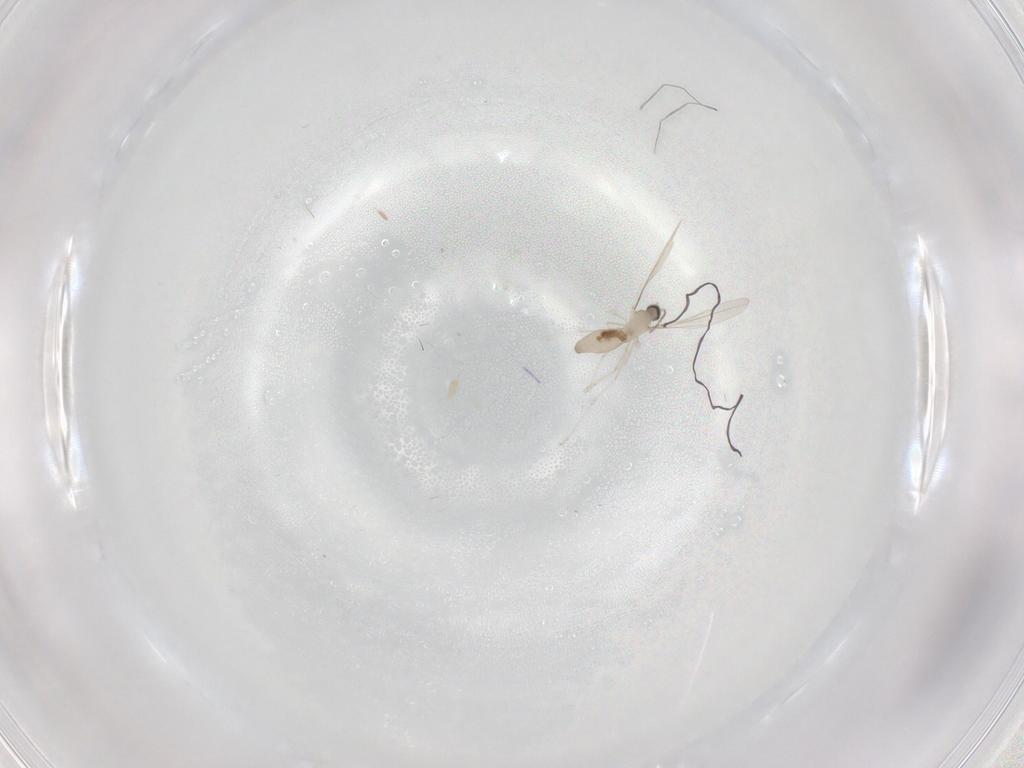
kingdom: Animalia
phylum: Arthropoda
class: Insecta
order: Diptera
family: Cecidomyiidae
